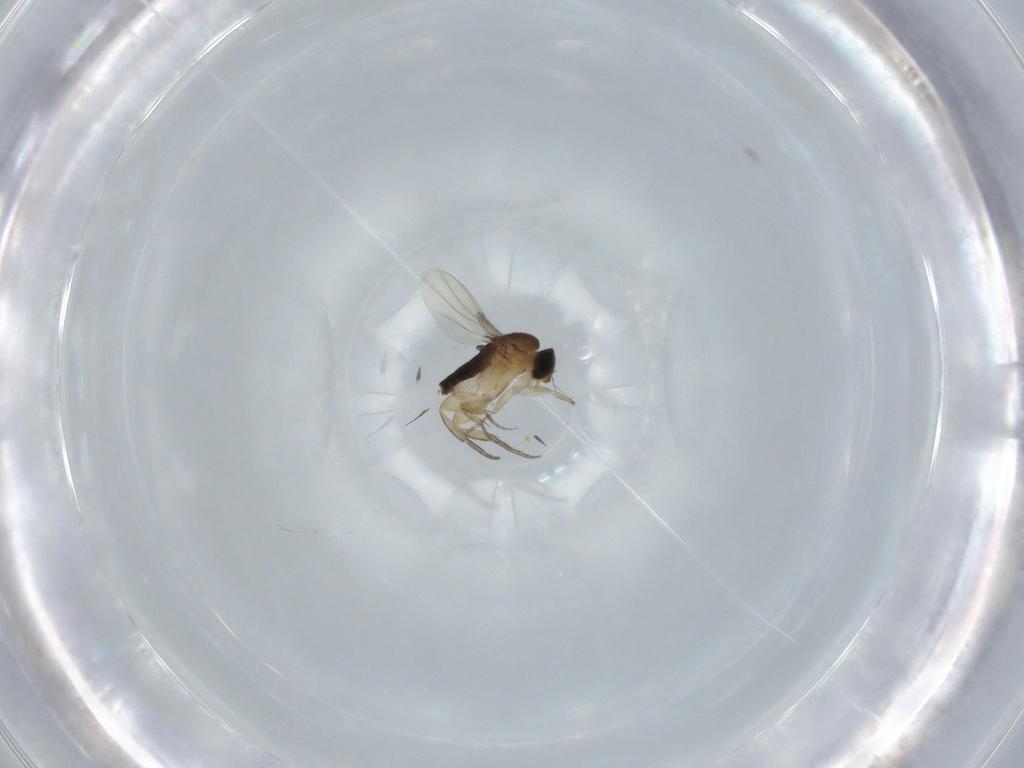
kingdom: Animalia
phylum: Arthropoda
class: Insecta
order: Diptera
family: Phoridae
